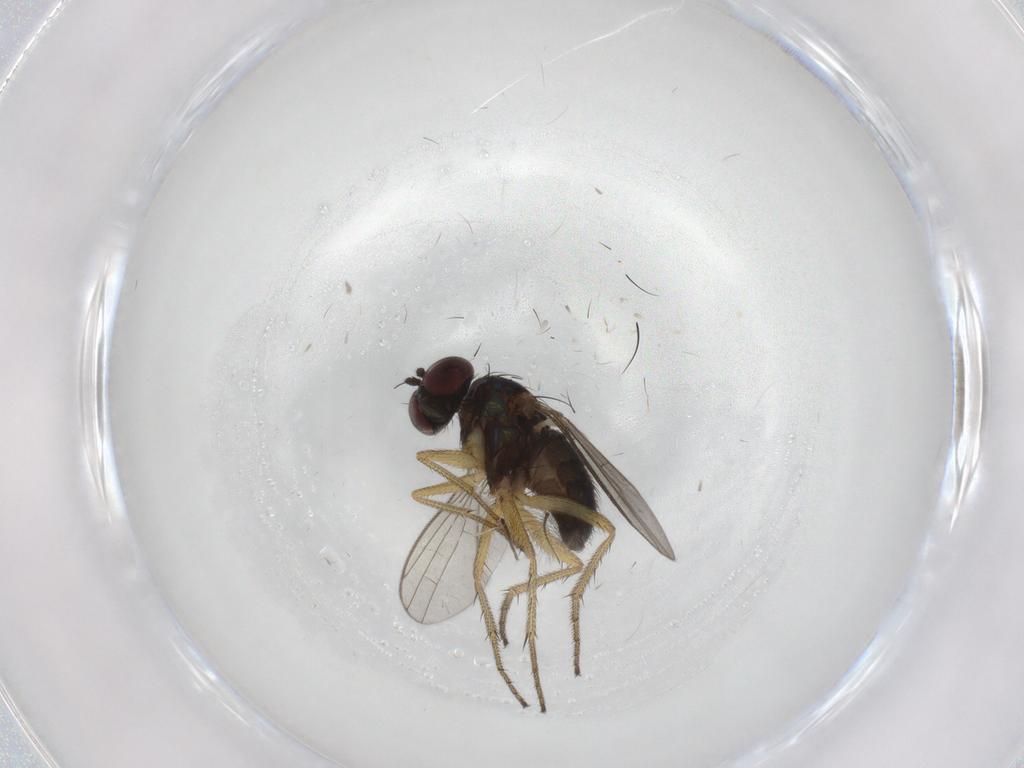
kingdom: Animalia
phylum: Arthropoda
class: Insecta
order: Diptera
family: Dolichopodidae
